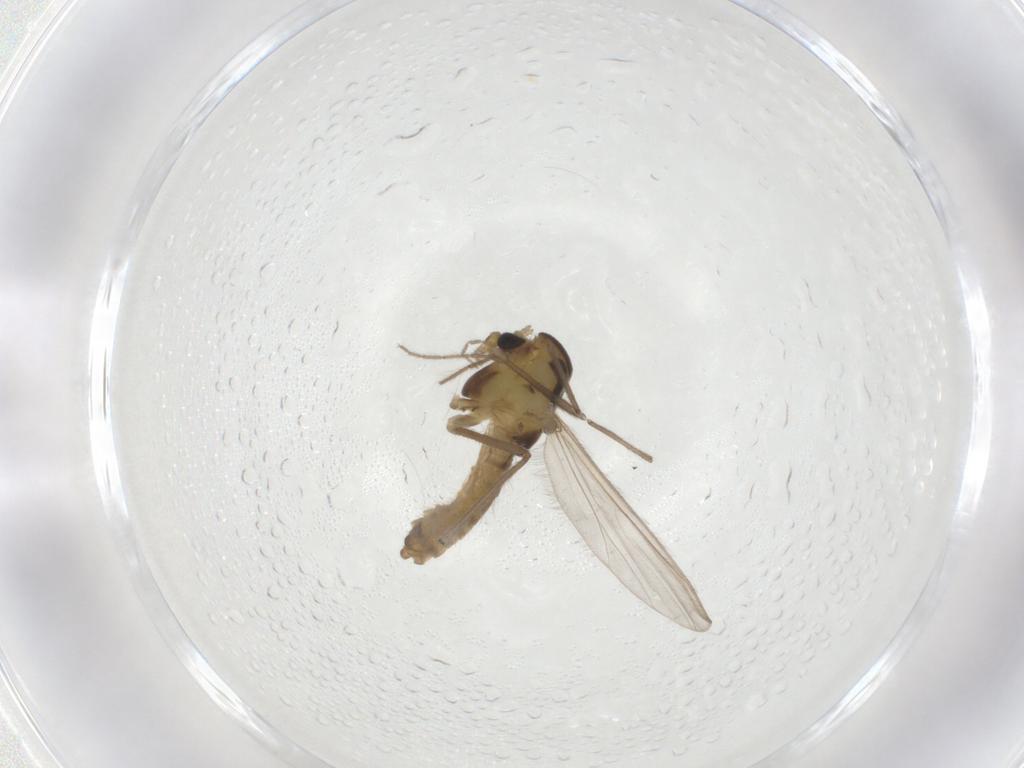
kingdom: Animalia
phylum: Arthropoda
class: Insecta
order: Diptera
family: Chironomidae
